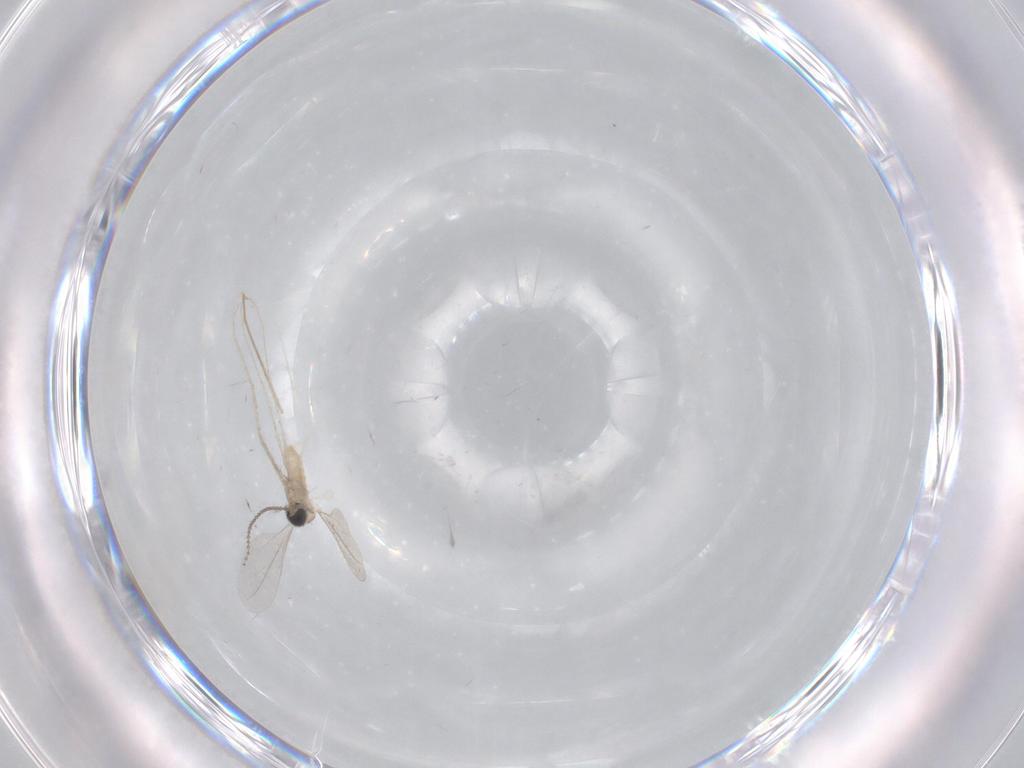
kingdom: Animalia
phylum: Arthropoda
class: Insecta
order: Diptera
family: Cecidomyiidae
